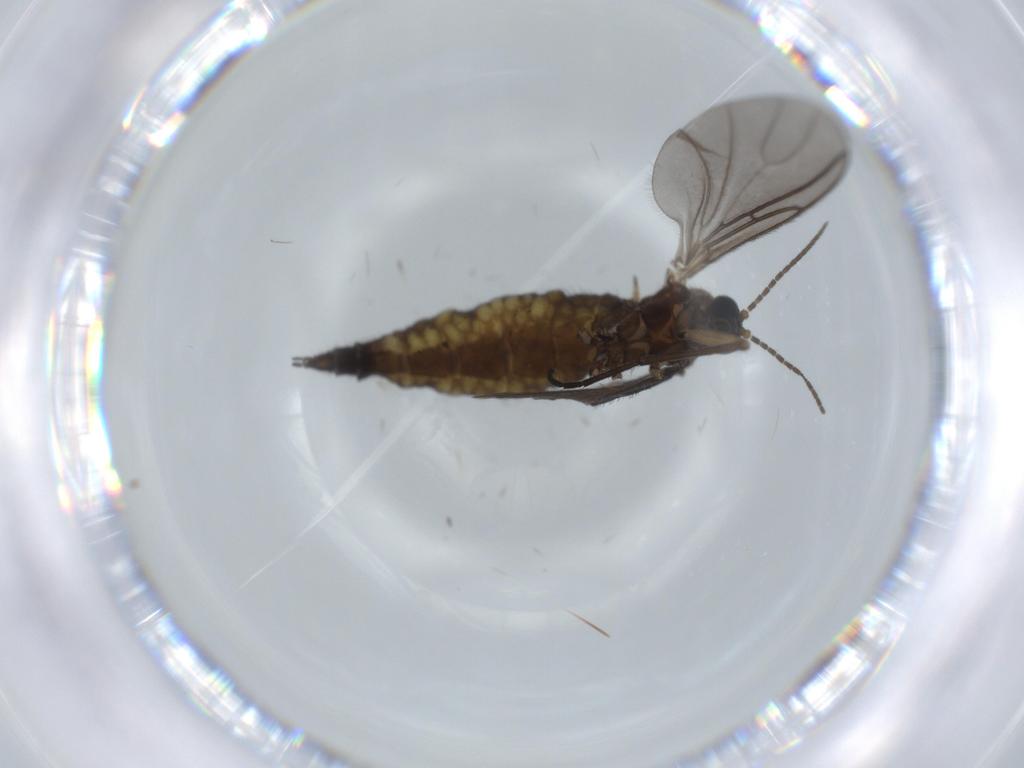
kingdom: Animalia
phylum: Arthropoda
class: Insecta
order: Diptera
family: Sciaridae
